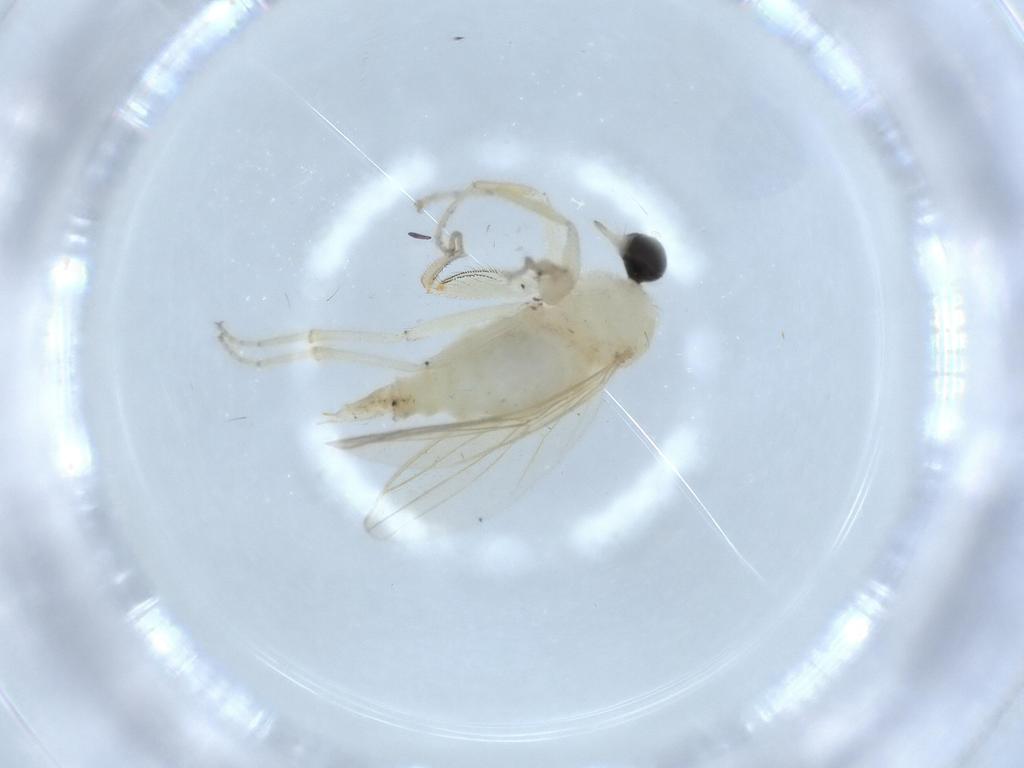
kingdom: Animalia
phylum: Arthropoda
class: Insecta
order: Diptera
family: Hybotidae
